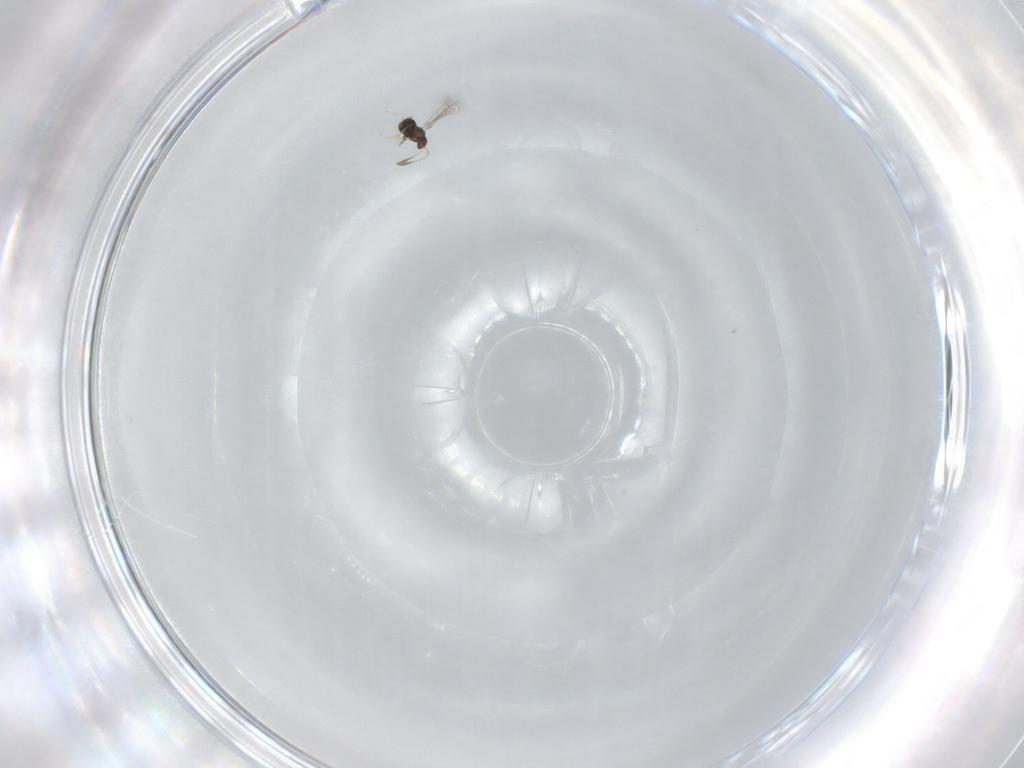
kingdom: Animalia
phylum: Arthropoda
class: Insecta
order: Hymenoptera
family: Mymaridae
